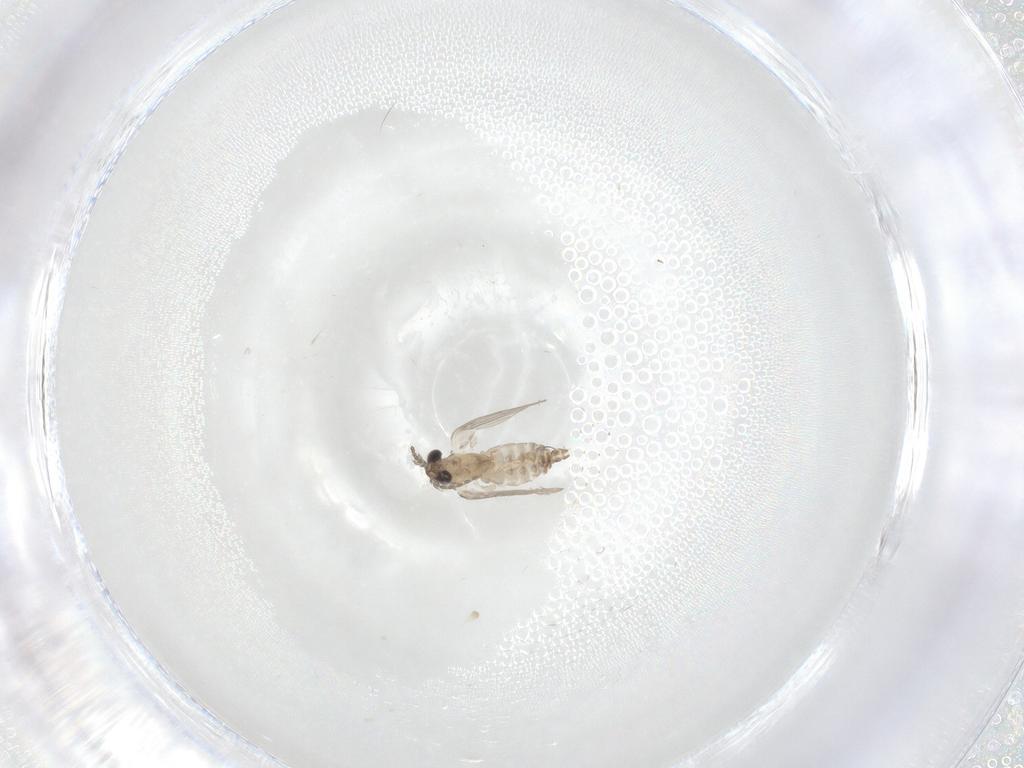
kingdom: Animalia
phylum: Arthropoda
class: Insecta
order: Diptera
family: Psychodidae
